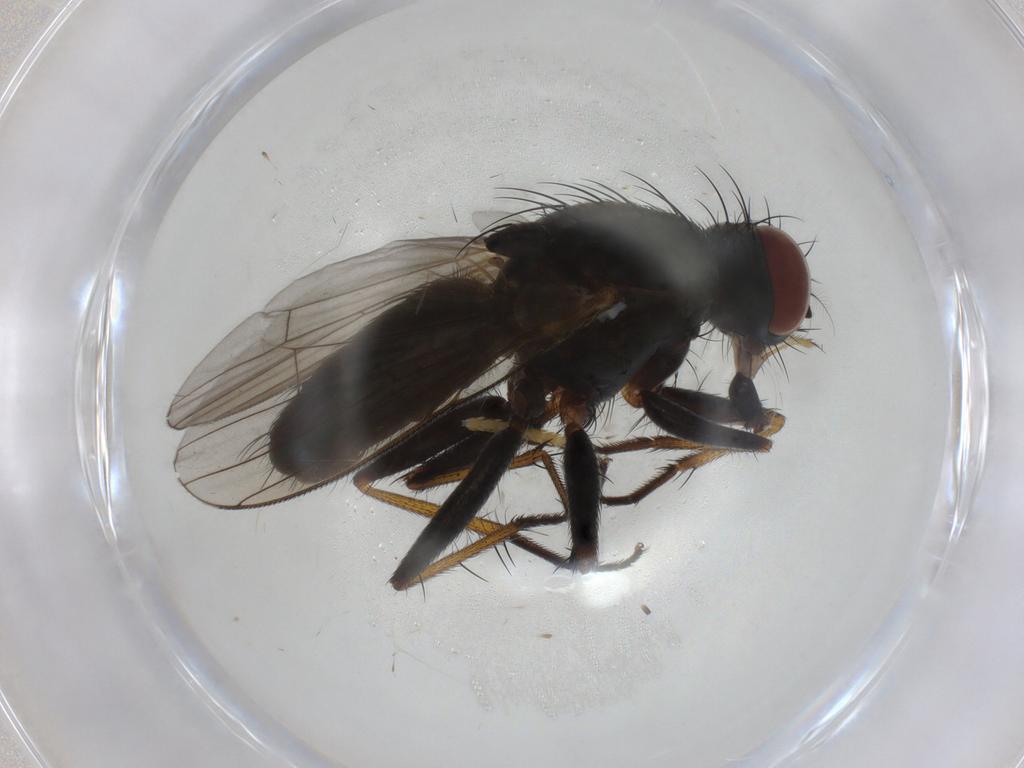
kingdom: Animalia
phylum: Arthropoda
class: Insecta
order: Diptera
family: Muscidae
